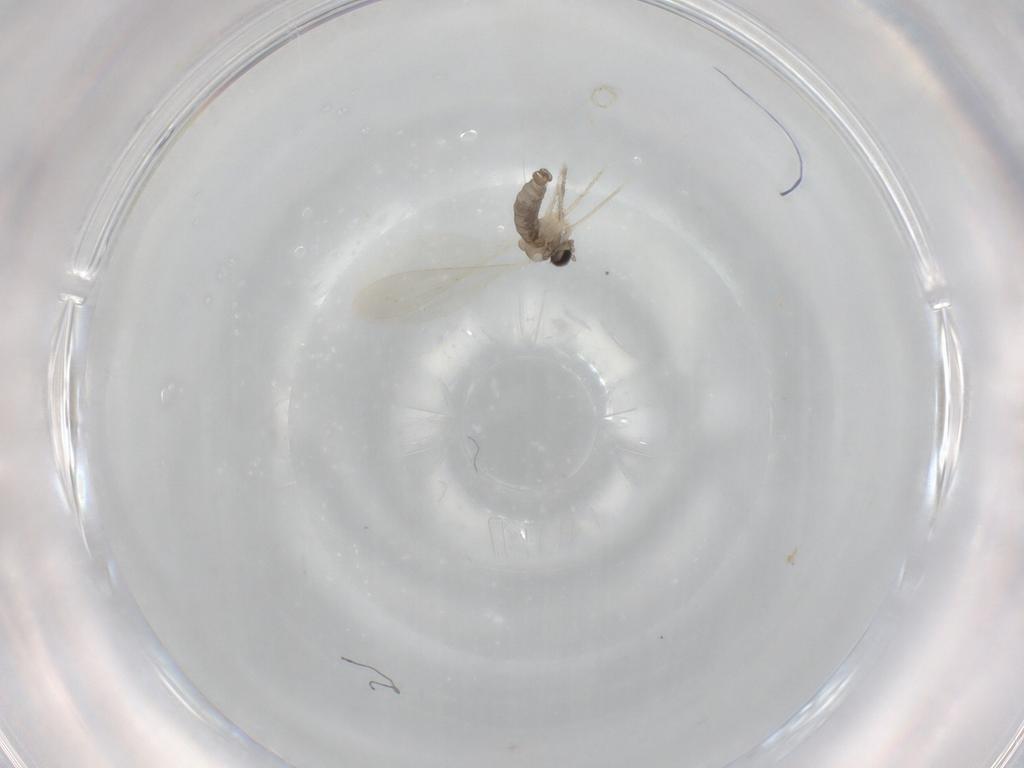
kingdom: Animalia
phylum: Arthropoda
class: Insecta
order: Diptera
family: Cecidomyiidae
